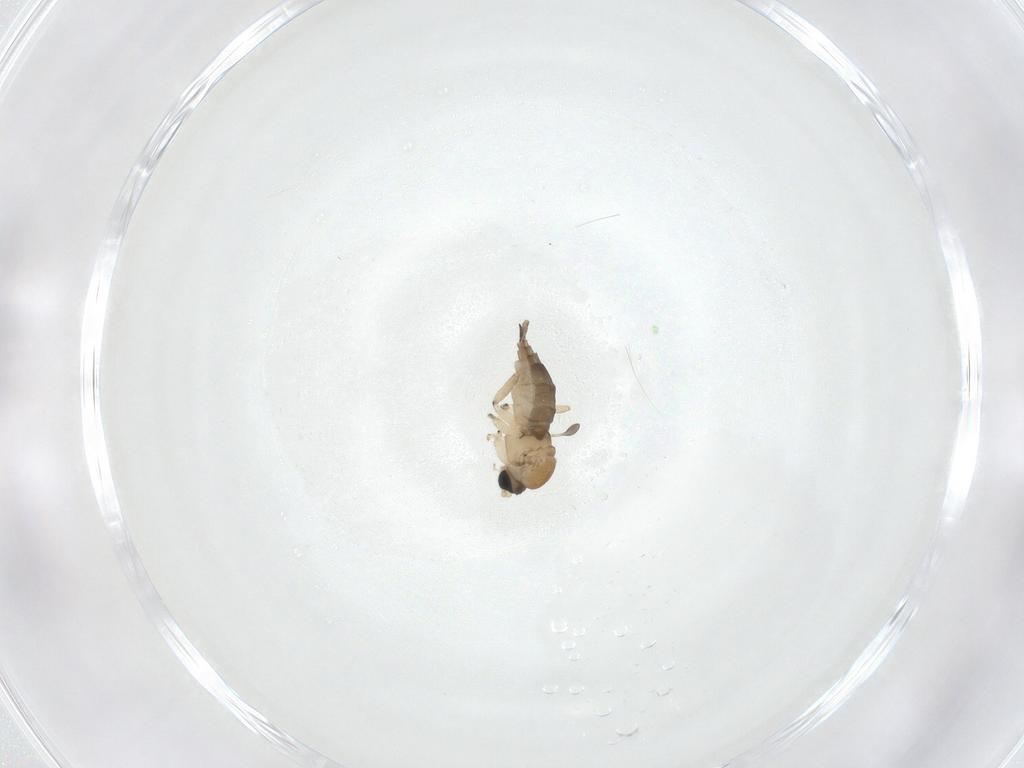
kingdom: Animalia
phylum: Arthropoda
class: Insecta
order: Diptera
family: Sciaridae
